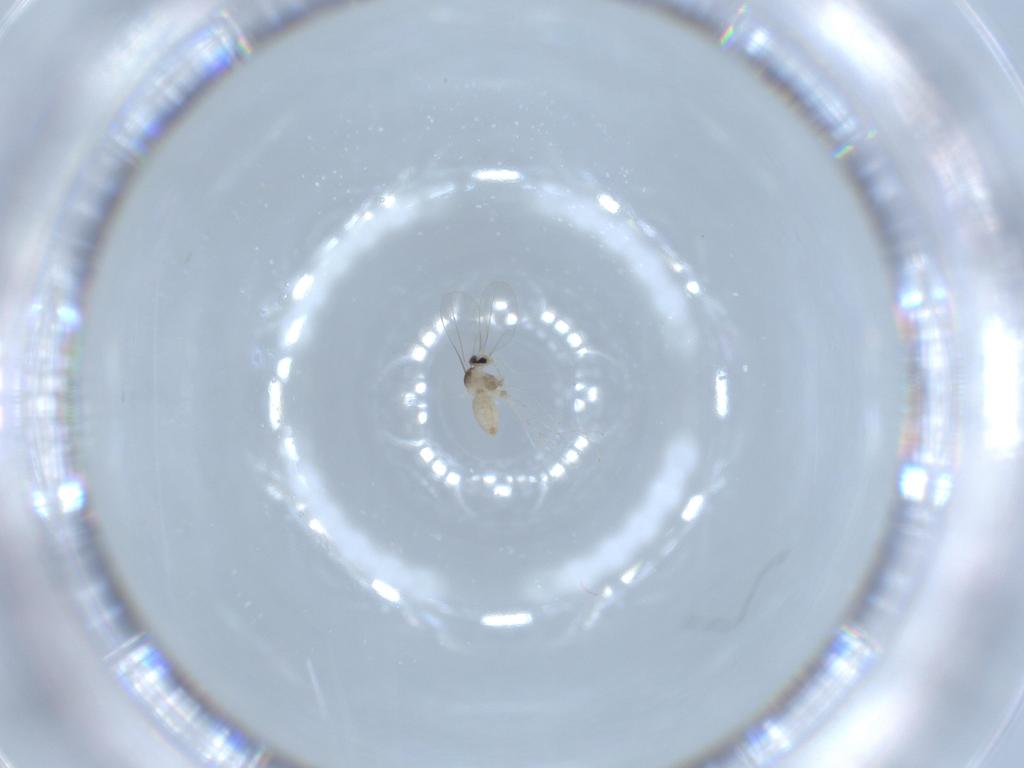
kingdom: Animalia
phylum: Arthropoda
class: Insecta
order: Diptera
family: Cecidomyiidae
